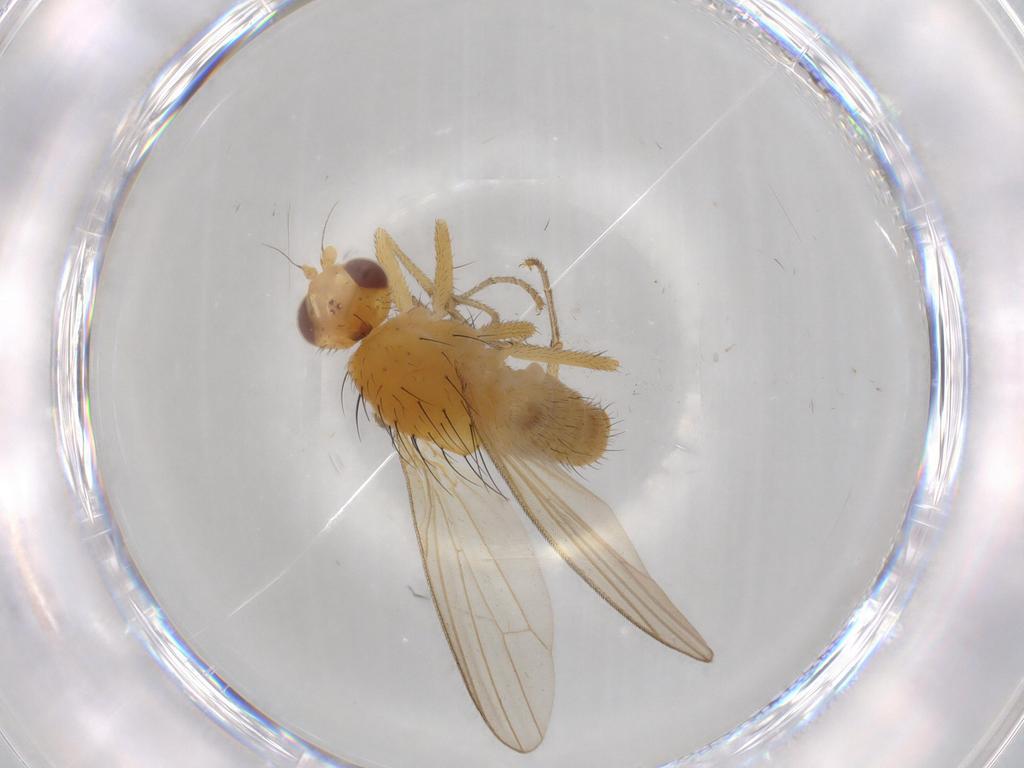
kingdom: Animalia
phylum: Arthropoda
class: Insecta
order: Diptera
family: Lauxaniidae
